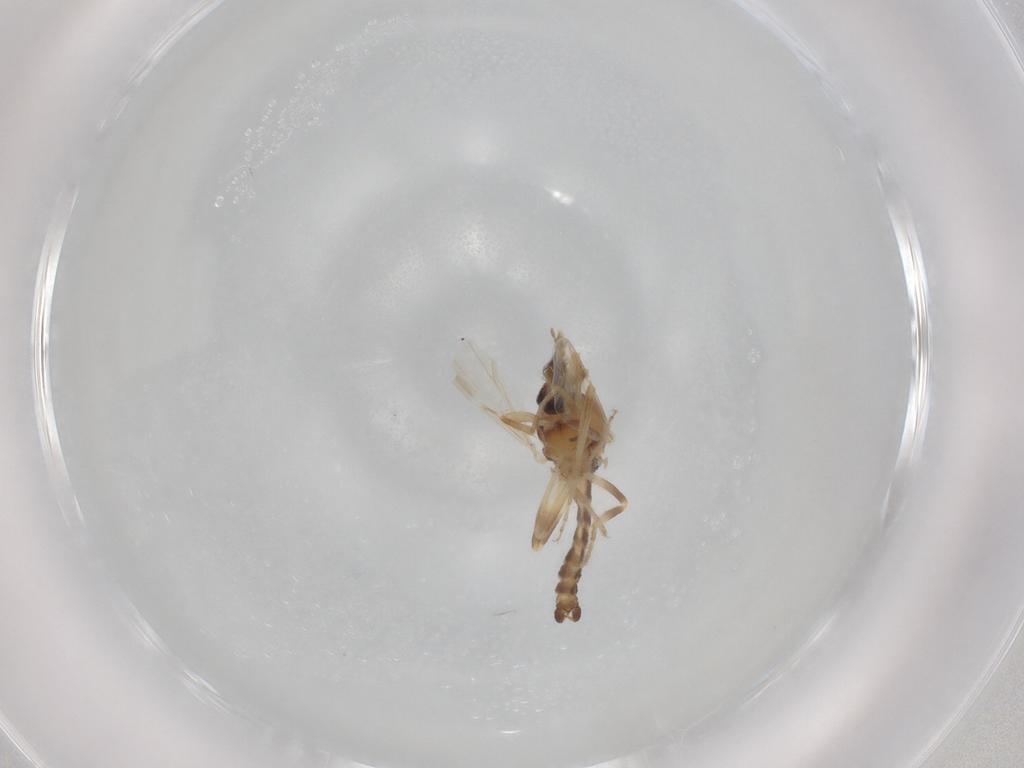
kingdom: Animalia
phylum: Arthropoda
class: Insecta
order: Diptera
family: Ceratopogonidae
